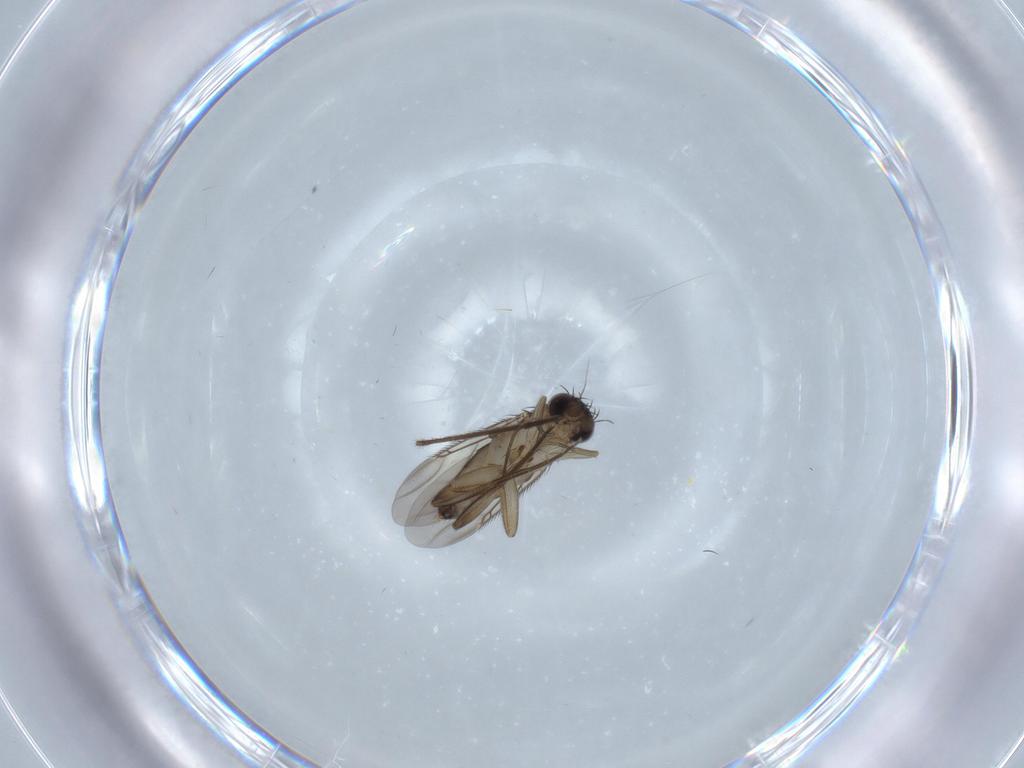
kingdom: Animalia
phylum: Arthropoda
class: Insecta
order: Diptera
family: Phoridae
